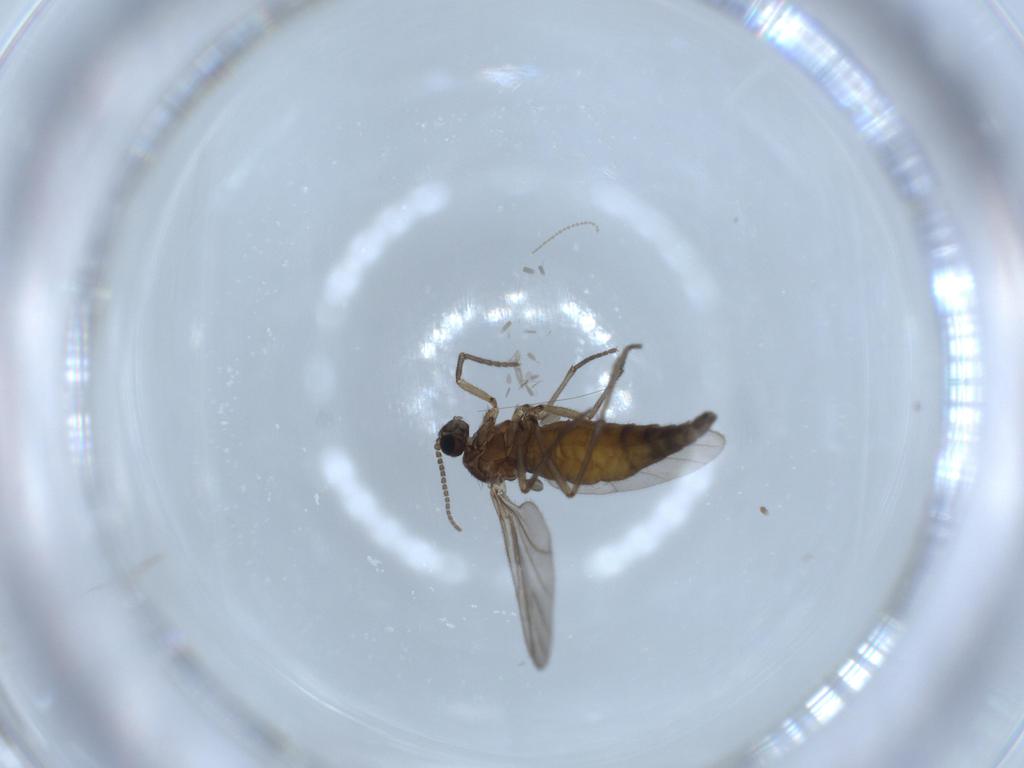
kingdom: Animalia
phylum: Arthropoda
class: Insecta
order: Diptera
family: Sciaridae
